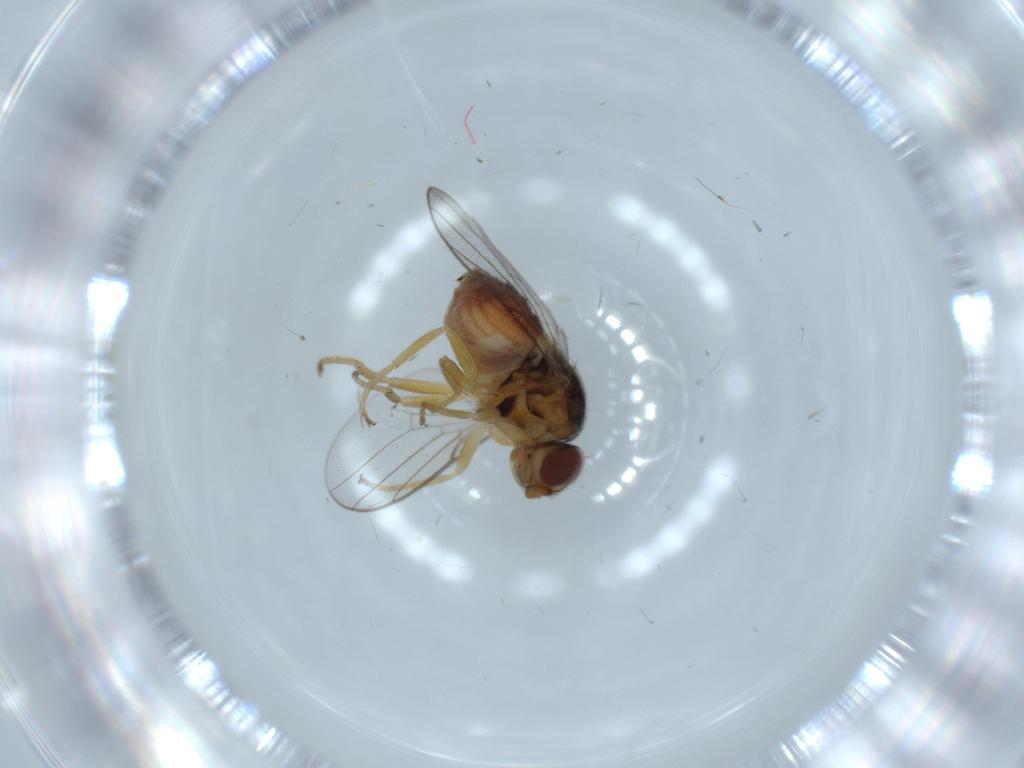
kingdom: Animalia
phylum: Arthropoda
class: Insecta
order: Diptera
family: Chloropidae
